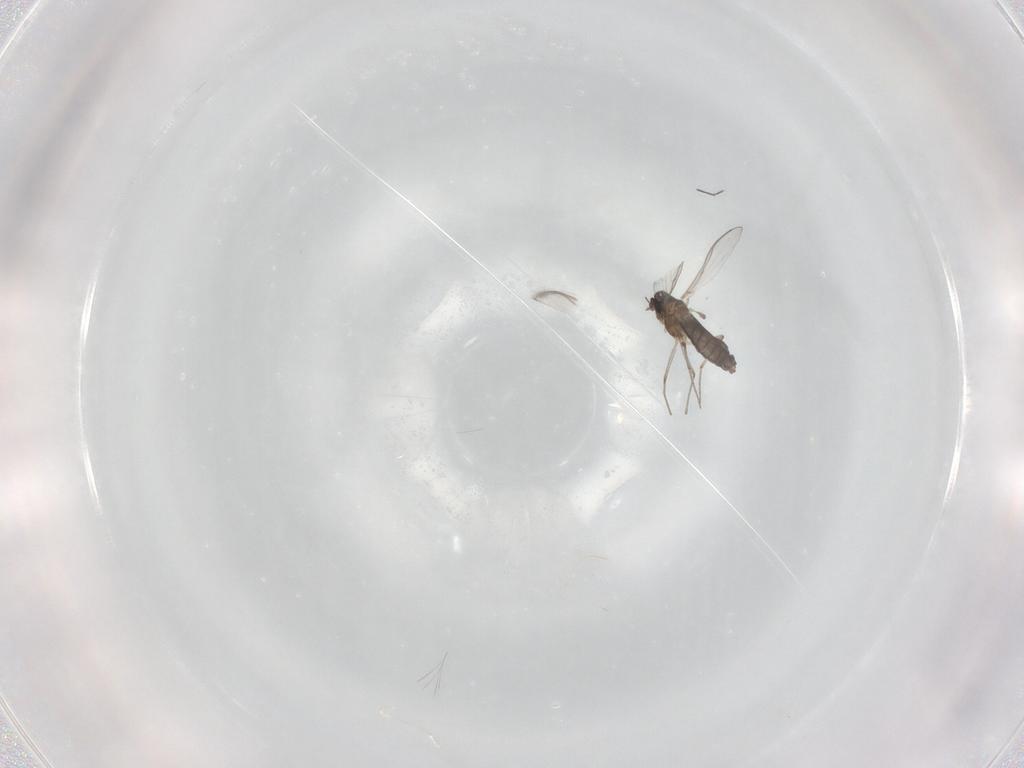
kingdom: Animalia
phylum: Arthropoda
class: Insecta
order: Diptera
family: Chironomidae
